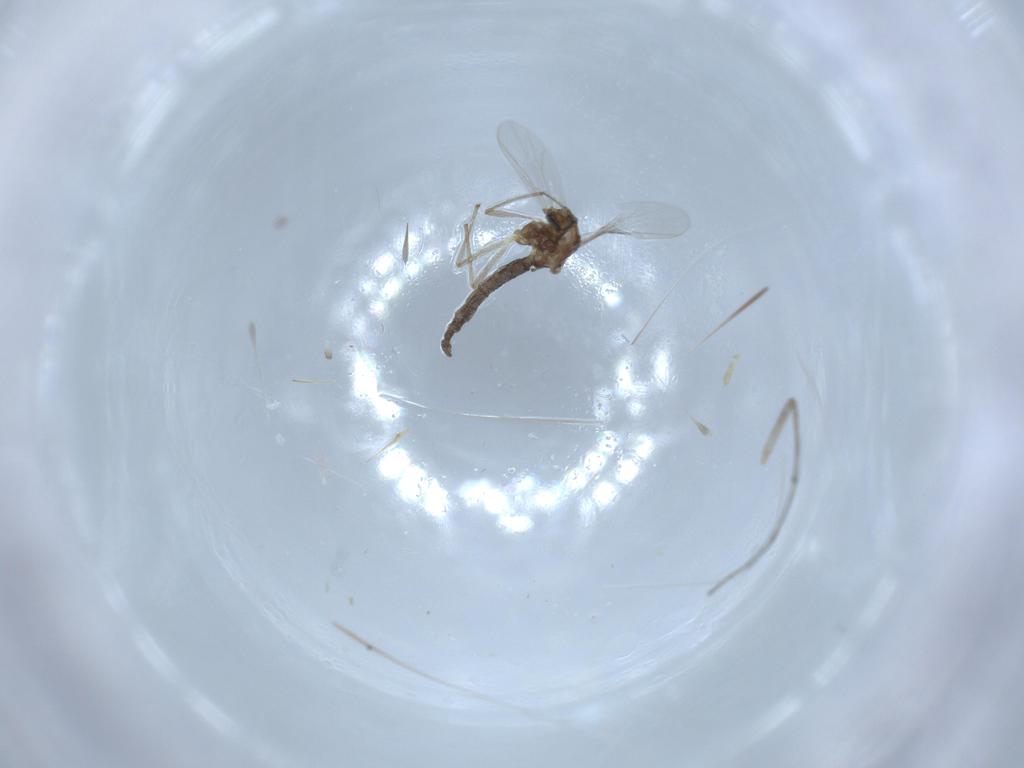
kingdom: Animalia
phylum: Arthropoda
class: Insecta
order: Diptera
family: Chironomidae
